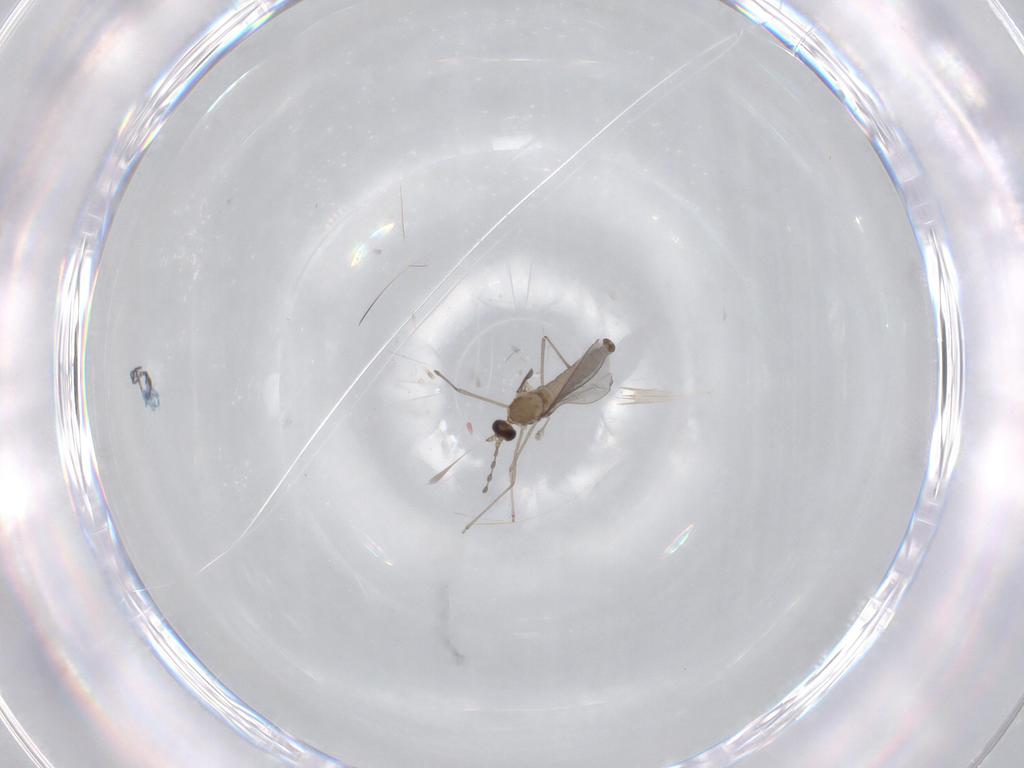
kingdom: Animalia
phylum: Arthropoda
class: Insecta
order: Diptera
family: Cecidomyiidae
